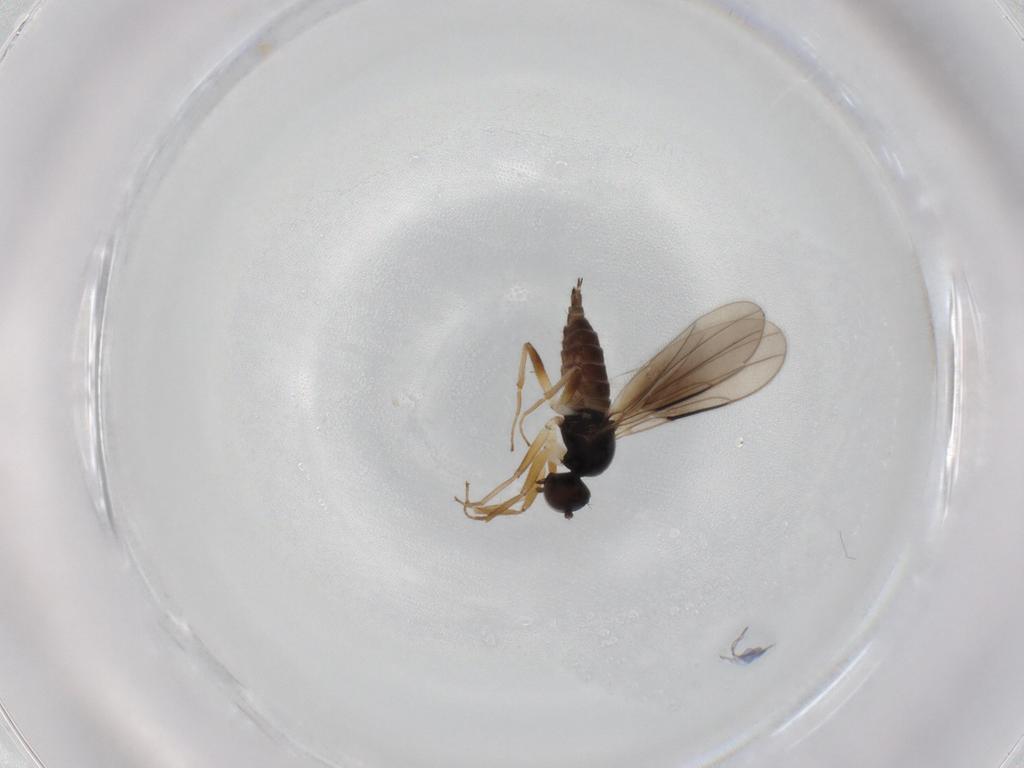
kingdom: Animalia
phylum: Arthropoda
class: Insecta
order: Diptera
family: Hybotidae
